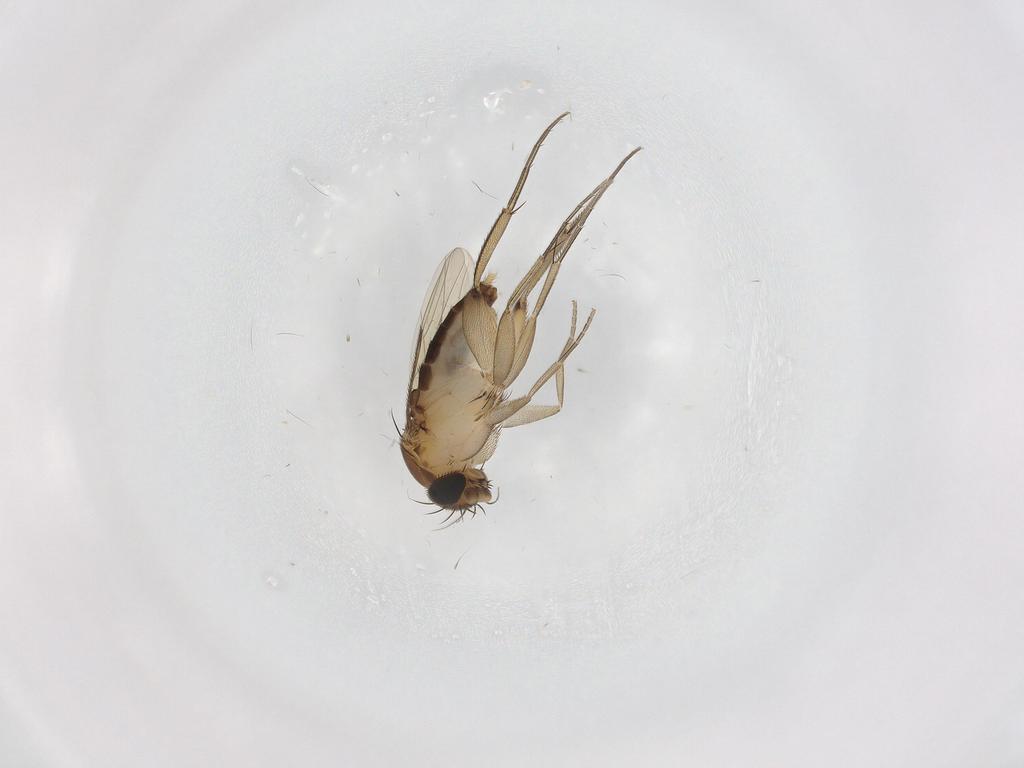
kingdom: Animalia
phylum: Arthropoda
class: Insecta
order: Diptera
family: Phoridae
